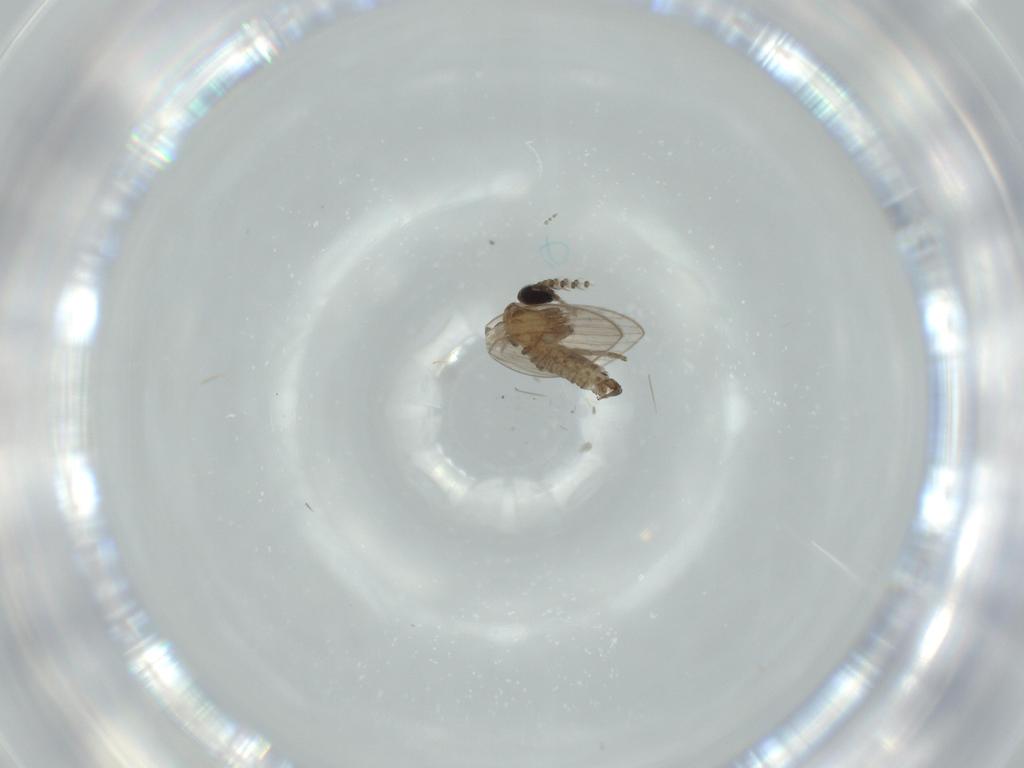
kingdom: Animalia
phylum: Arthropoda
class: Insecta
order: Diptera
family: Cecidomyiidae
